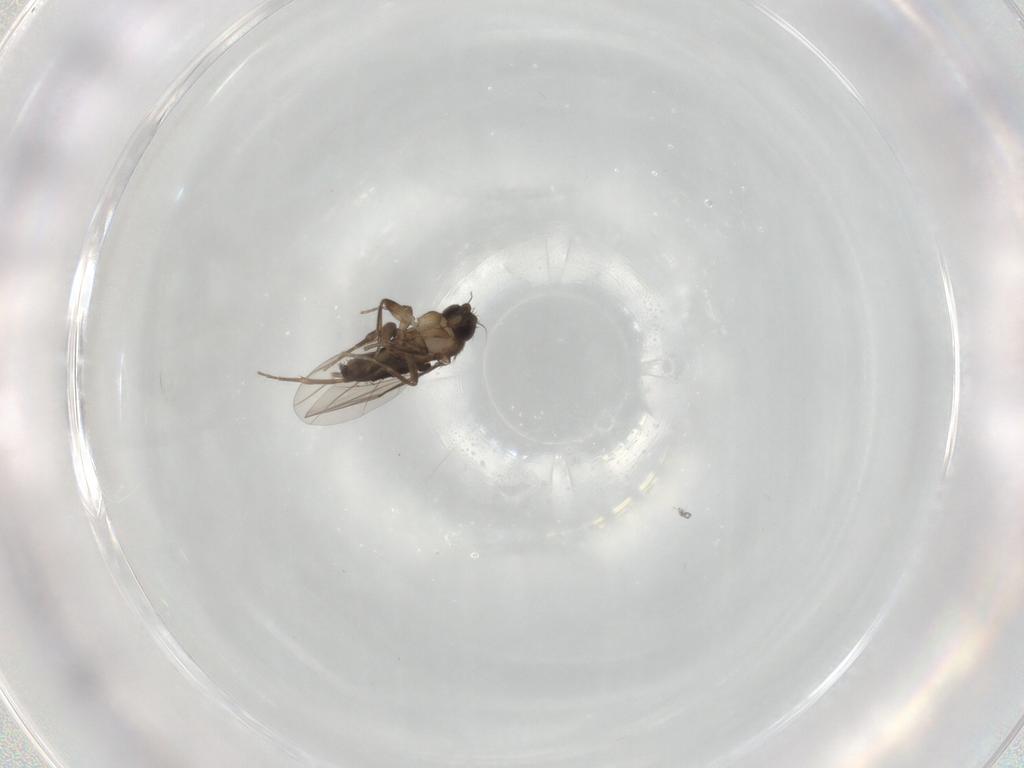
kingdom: Animalia
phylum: Arthropoda
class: Insecta
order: Diptera
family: Phoridae
